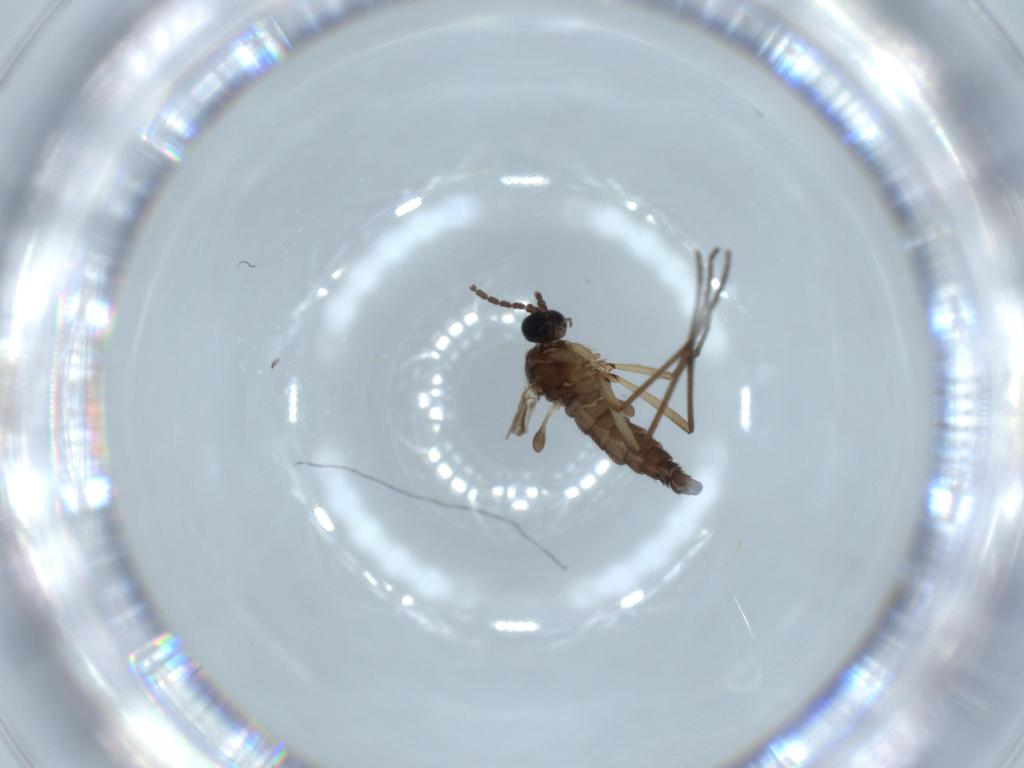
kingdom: Animalia
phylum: Arthropoda
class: Insecta
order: Diptera
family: Sciaridae
